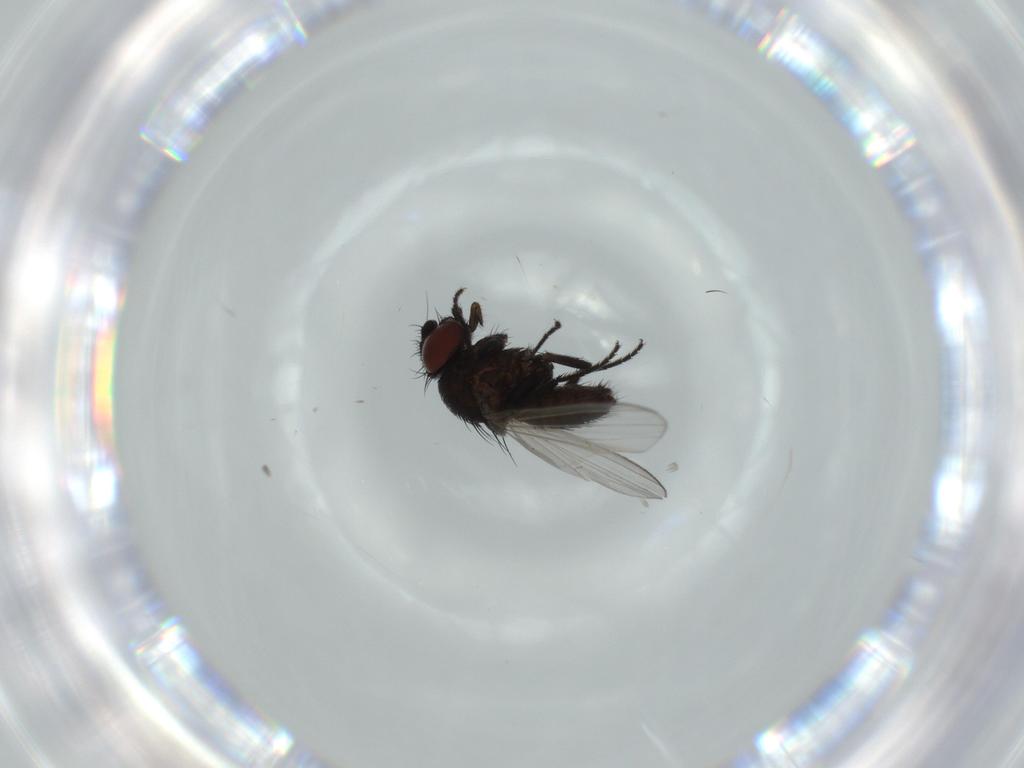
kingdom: Animalia
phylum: Arthropoda
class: Insecta
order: Diptera
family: Milichiidae
